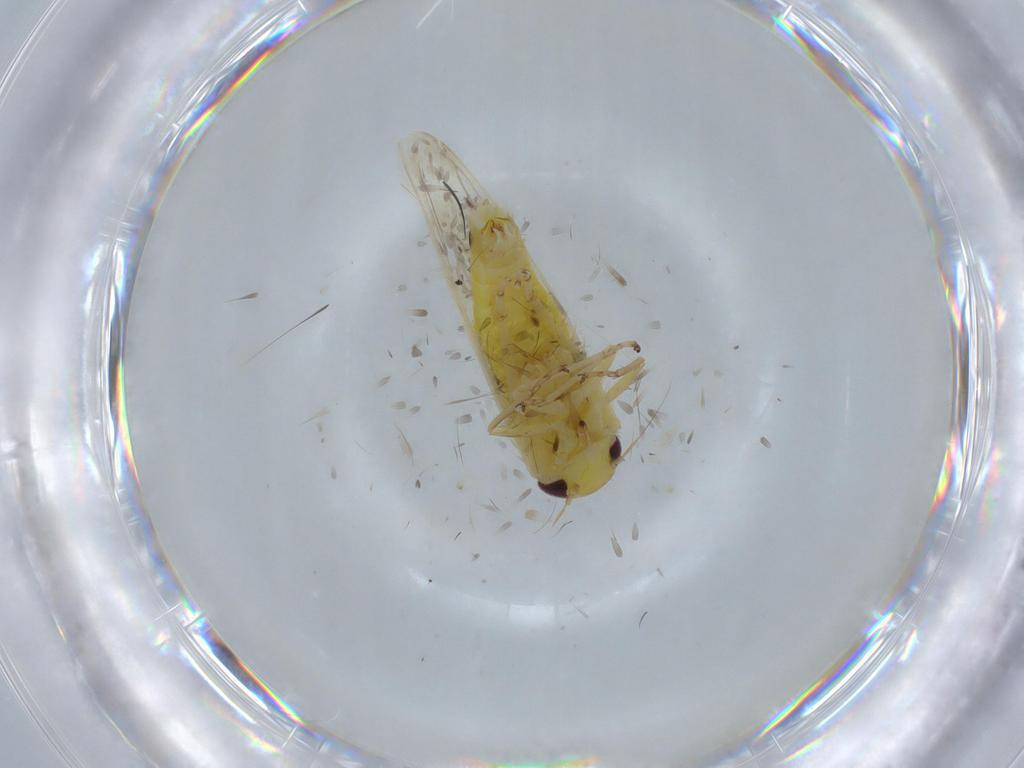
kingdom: Animalia
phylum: Arthropoda
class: Insecta
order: Hemiptera
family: Cicadellidae
